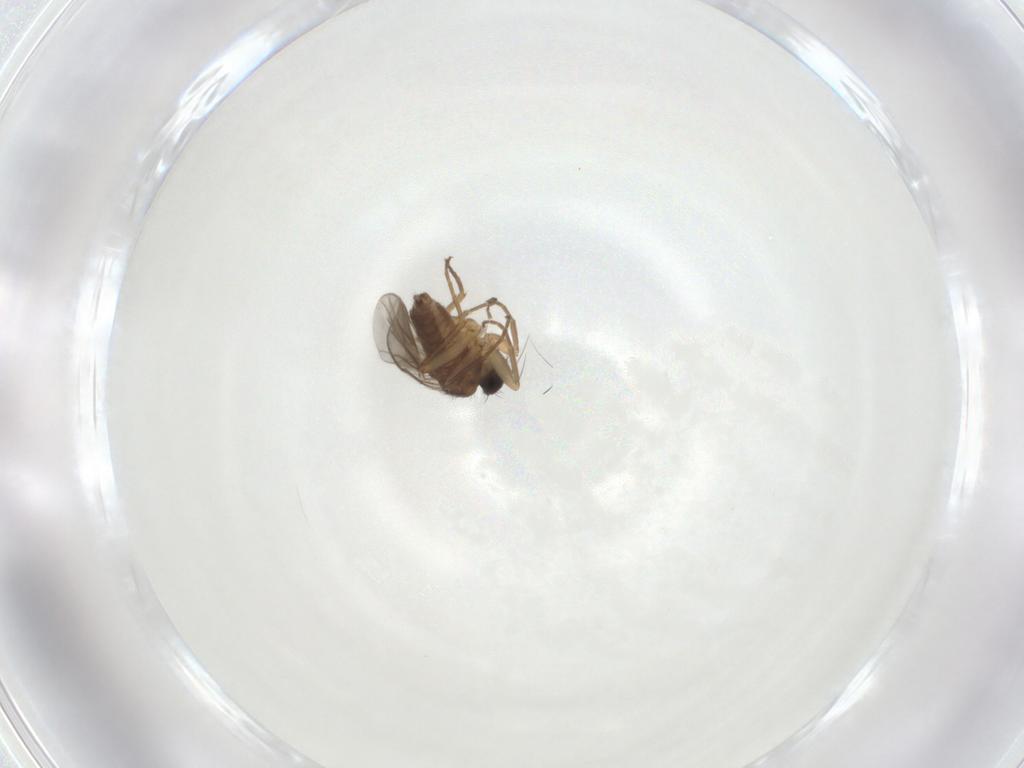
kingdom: Animalia
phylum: Arthropoda
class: Insecta
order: Diptera
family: Hybotidae
